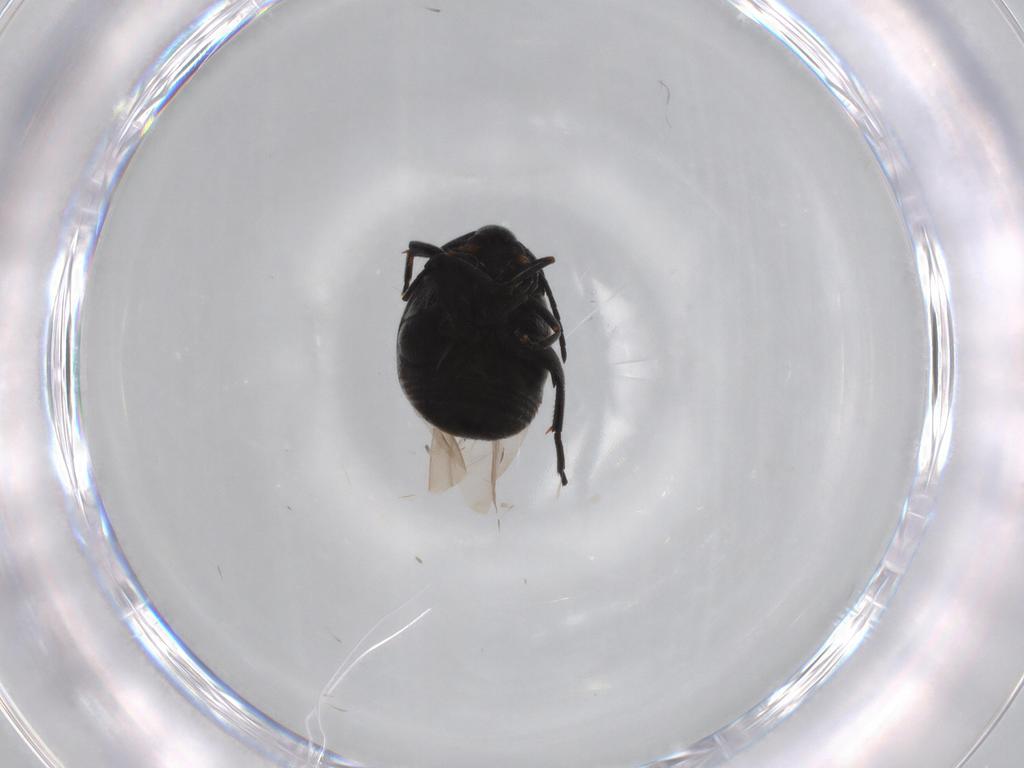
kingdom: Animalia
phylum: Arthropoda
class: Insecta
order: Coleoptera
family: Chrysomelidae
